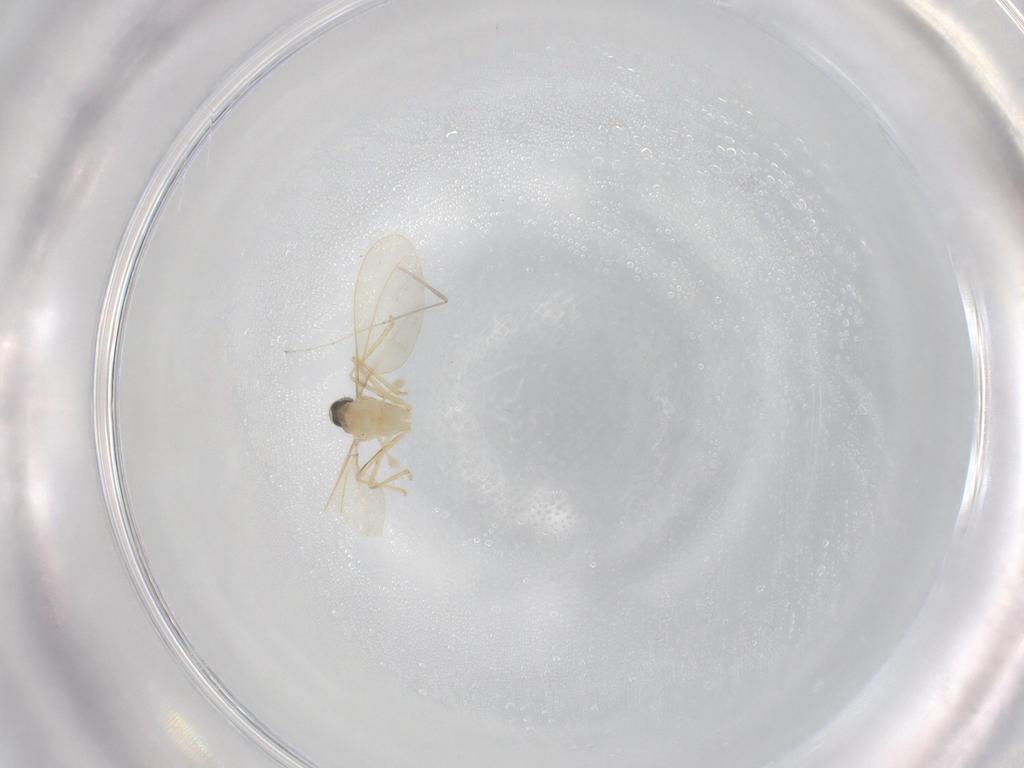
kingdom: Animalia
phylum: Arthropoda
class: Insecta
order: Diptera
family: Cecidomyiidae
